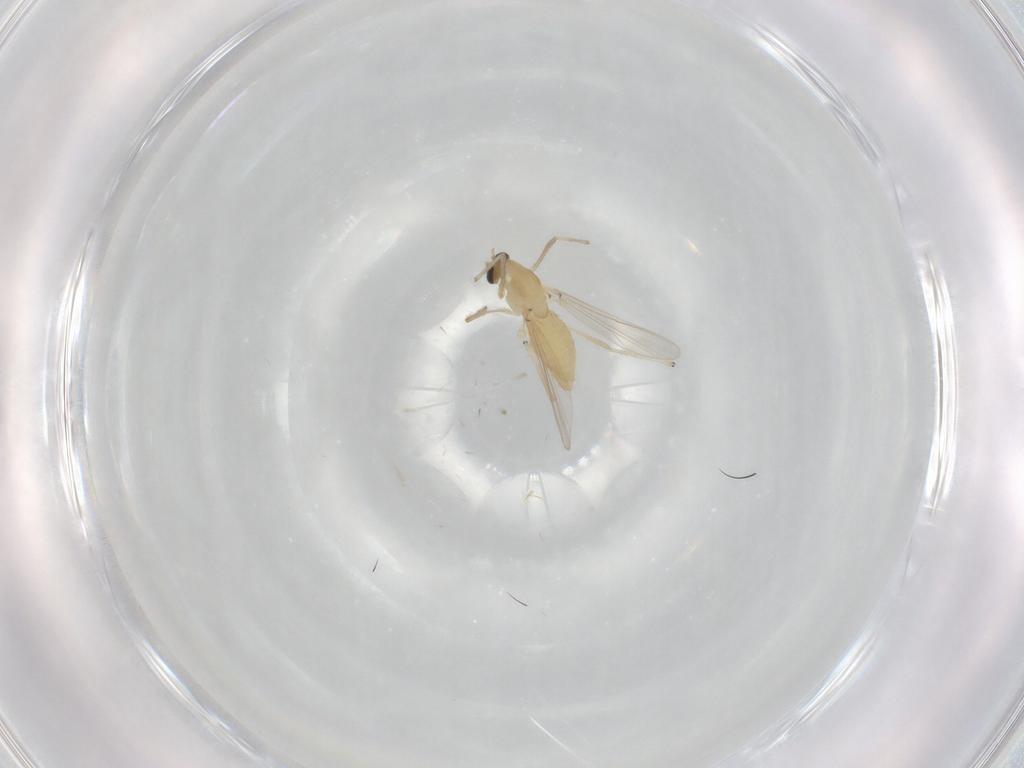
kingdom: Animalia
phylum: Arthropoda
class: Insecta
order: Diptera
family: Chironomidae
